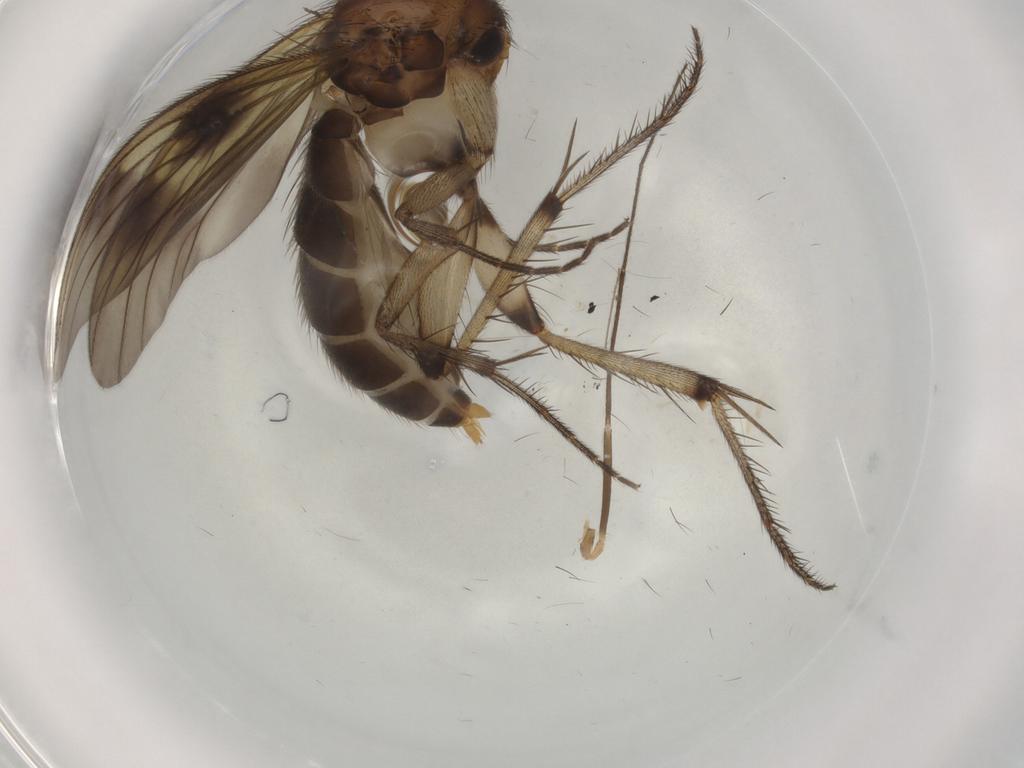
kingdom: Animalia
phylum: Arthropoda
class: Insecta
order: Diptera
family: Mycetophilidae
